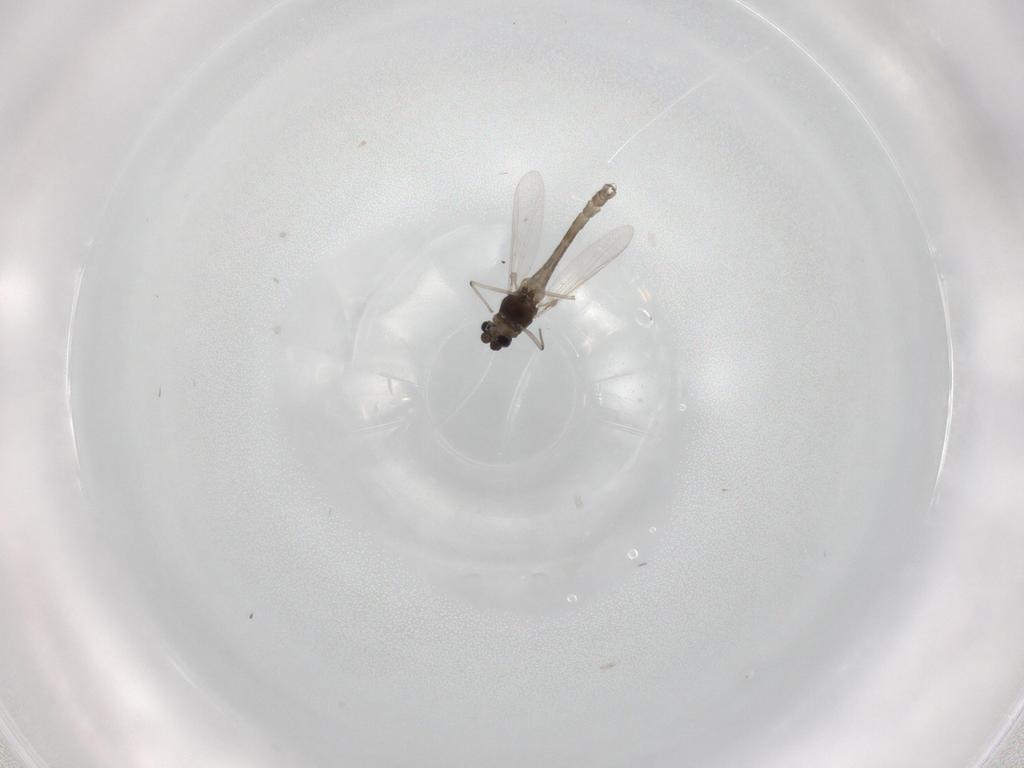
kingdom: Animalia
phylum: Arthropoda
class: Insecta
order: Diptera
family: Chironomidae
